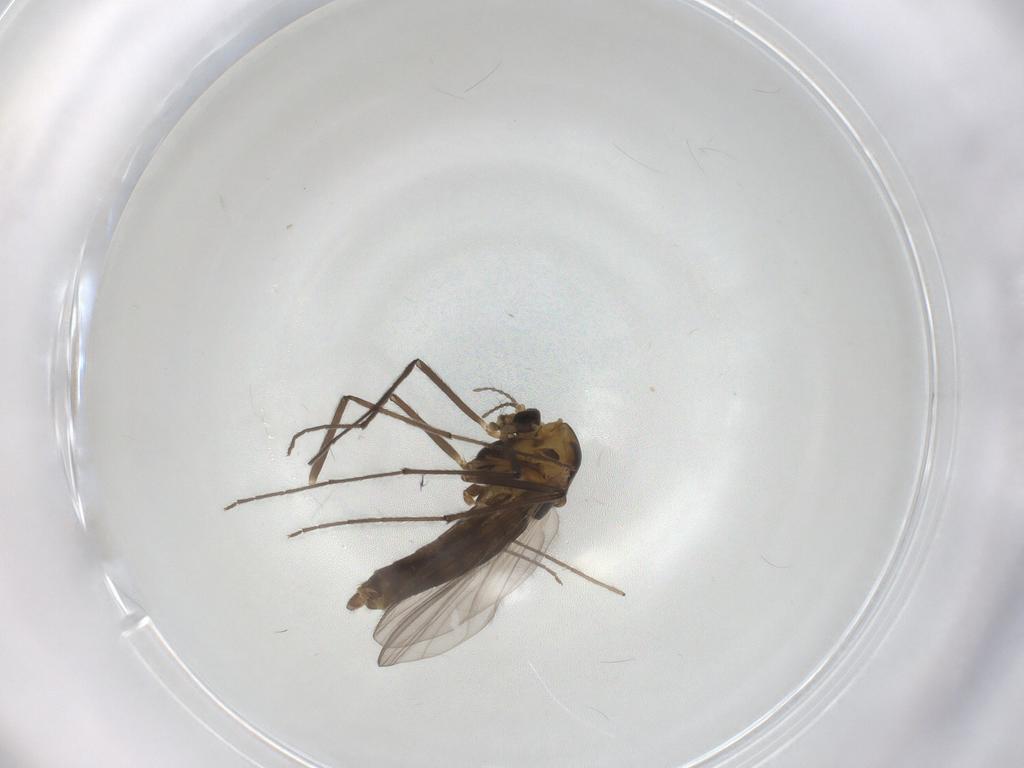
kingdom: Animalia
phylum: Arthropoda
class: Insecta
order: Diptera
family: Chironomidae
